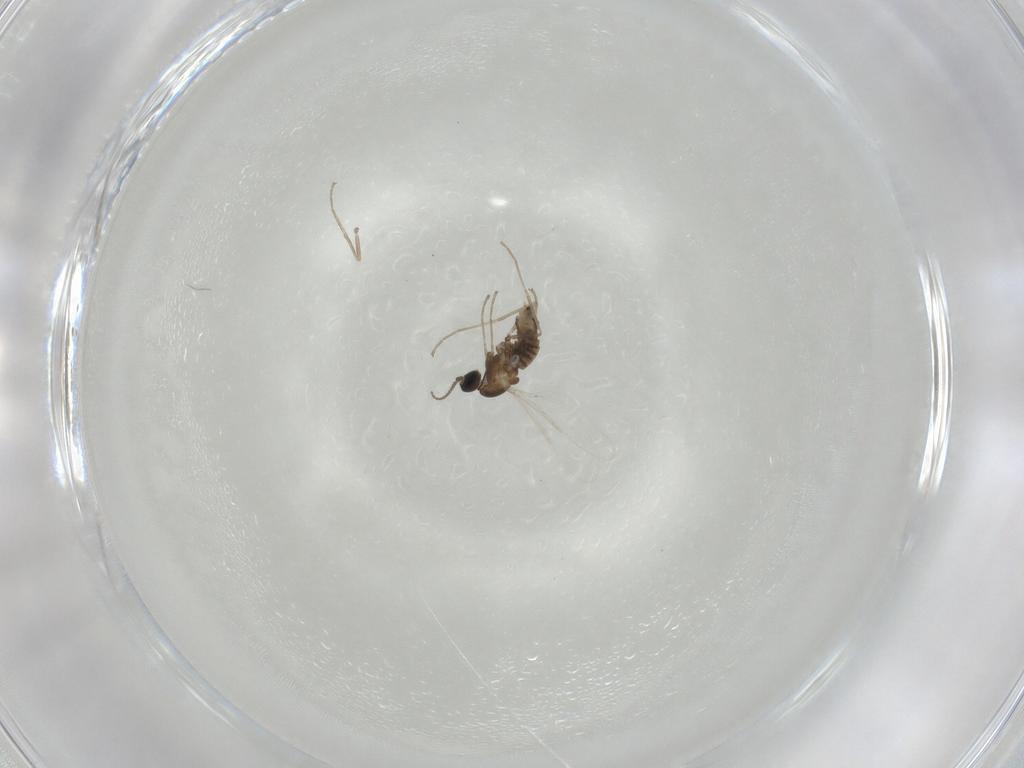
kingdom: Animalia
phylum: Arthropoda
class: Insecta
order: Diptera
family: Cecidomyiidae
